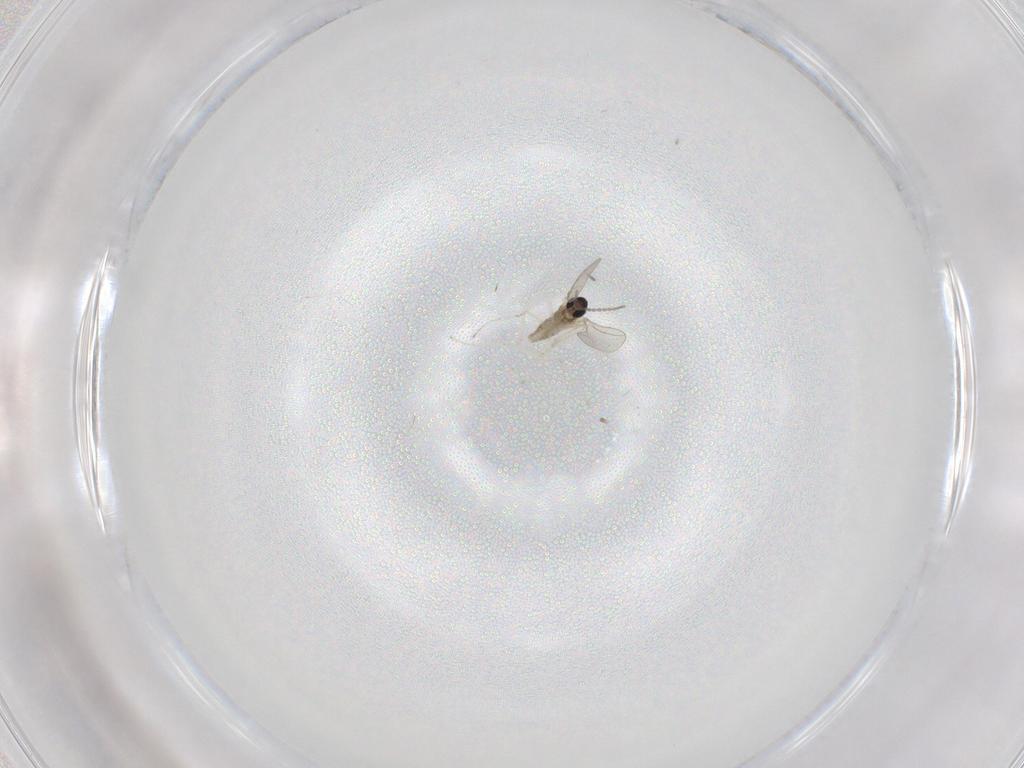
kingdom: Animalia
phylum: Arthropoda
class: Insecta
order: Diptera
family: Cecidomyiidae
